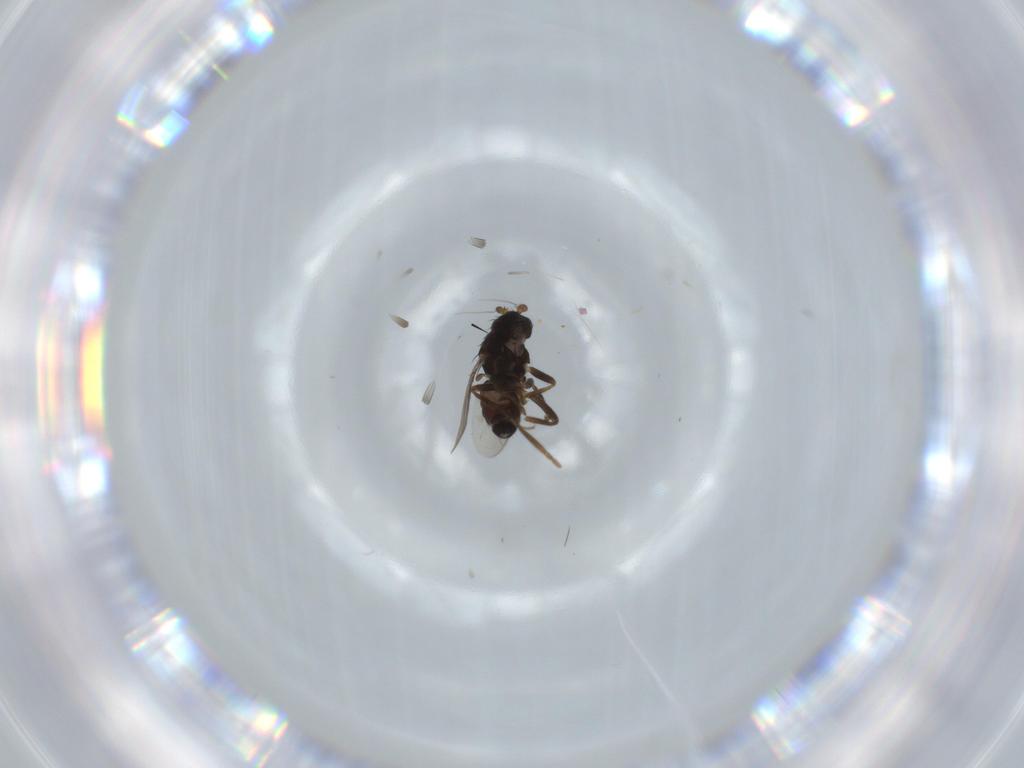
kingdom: Animalia
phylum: Arthropoda
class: Insecta
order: Diptera
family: Sphaeroceridae
